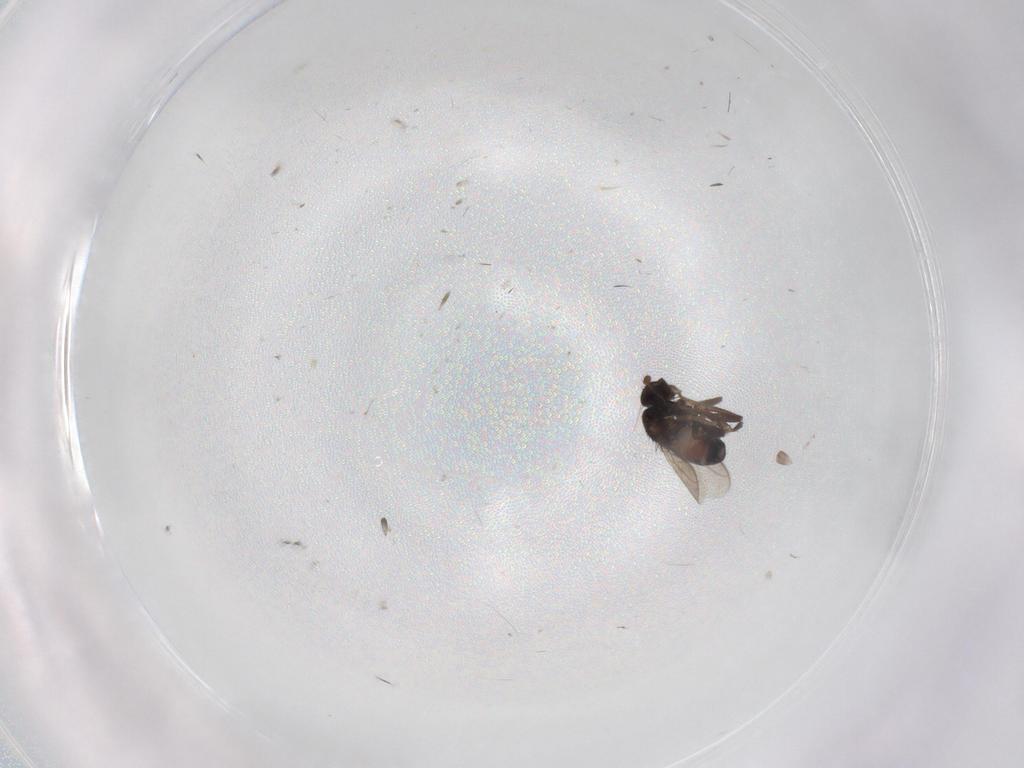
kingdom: Animalia
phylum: Arthropoda
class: Insecta
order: Diptera
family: Sphaeroceridae
